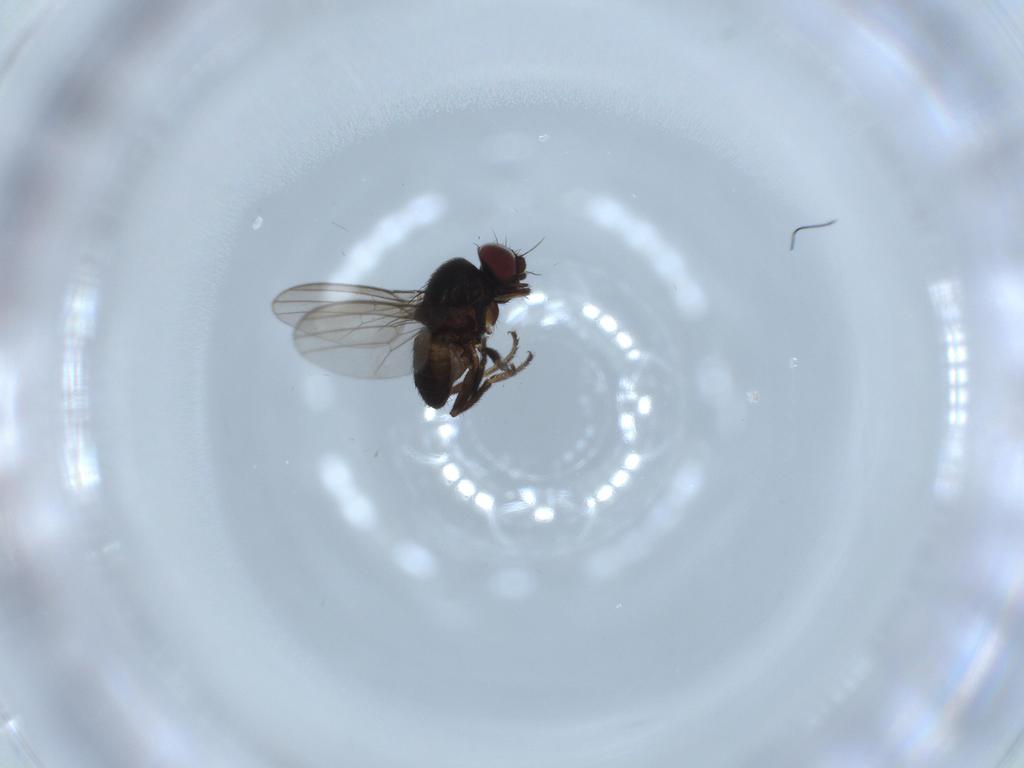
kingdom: Animalia
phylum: Arthropoda
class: Insecta
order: Diptera
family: Milichiidae
